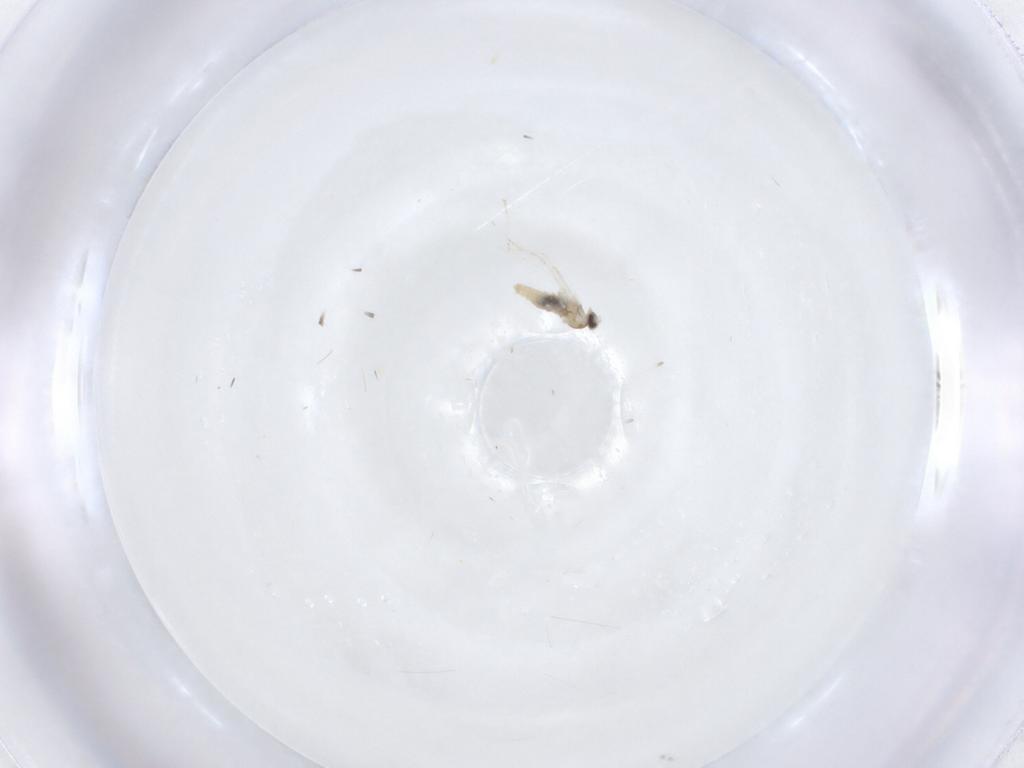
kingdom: Animalia
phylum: Arthropoda
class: Insecta
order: Diptera
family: Cecidomyiidae
